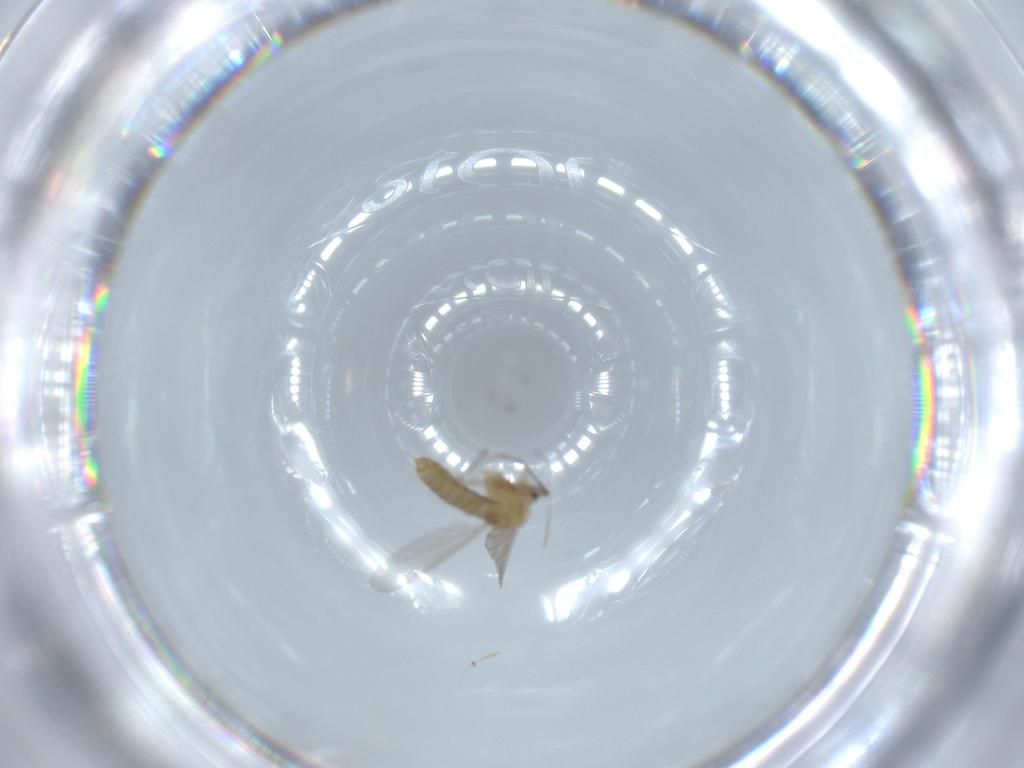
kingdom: Animalia
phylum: Arthropoda
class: Insecta
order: Diptera
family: Chironomidae
